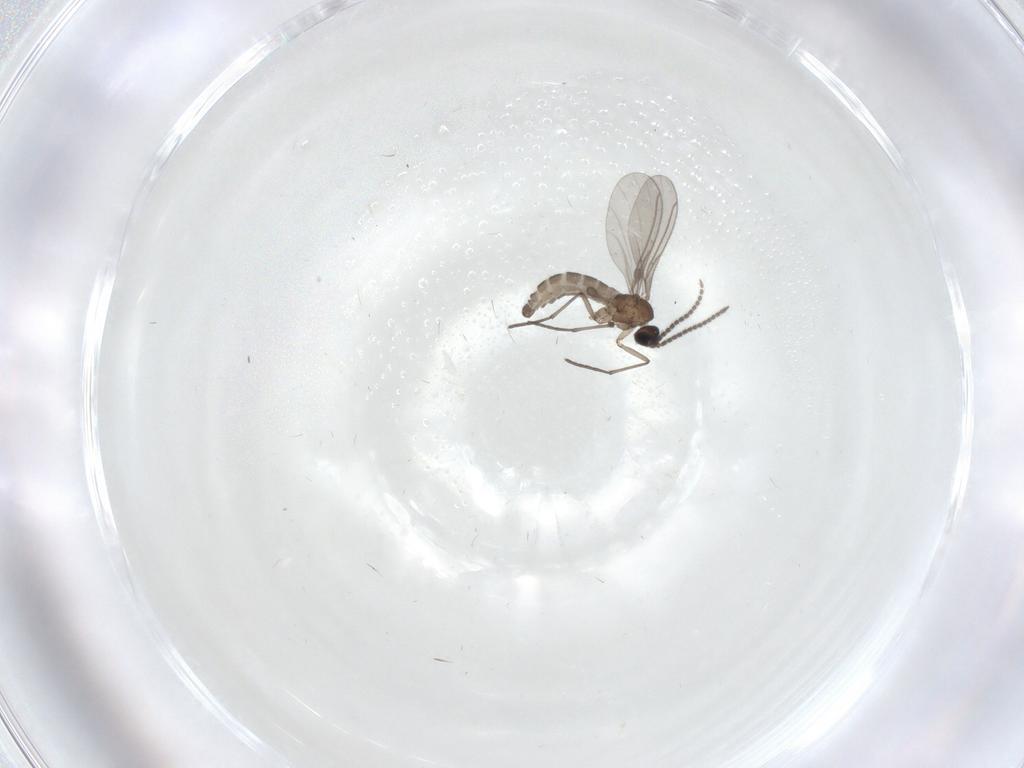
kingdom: Animalia
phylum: Arthropoda
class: Insecta
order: Diptera
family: Sciaridae
